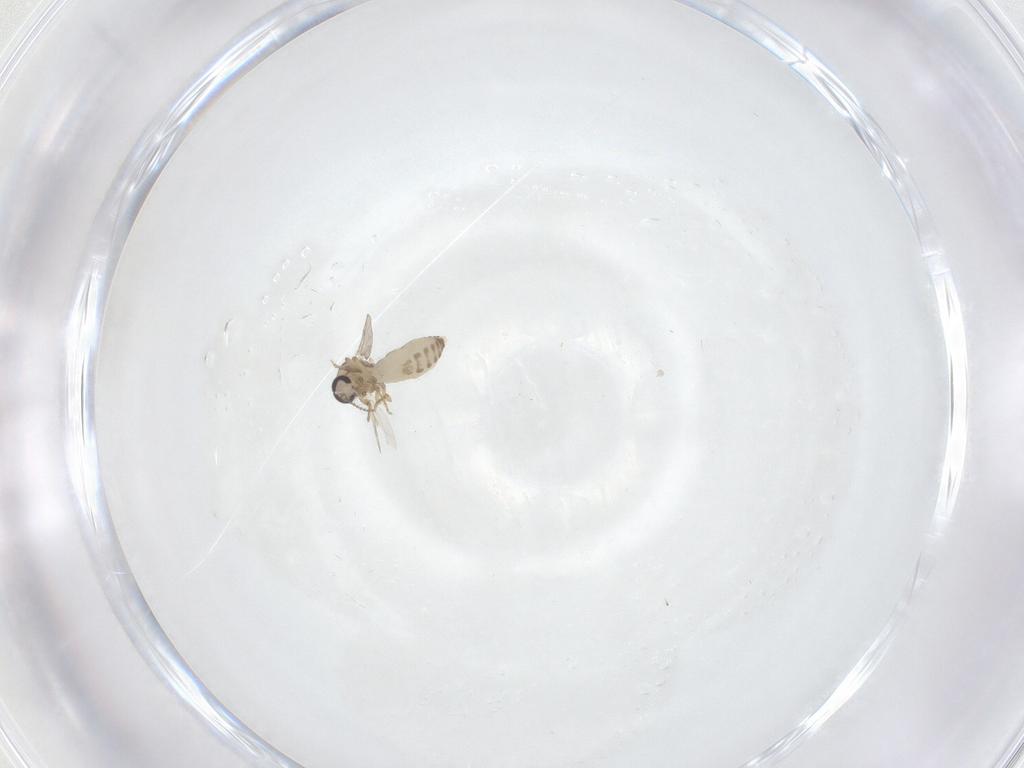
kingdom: Animalia
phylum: Arthropoda
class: Insecta
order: Diptera
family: Ceratopogonidae
